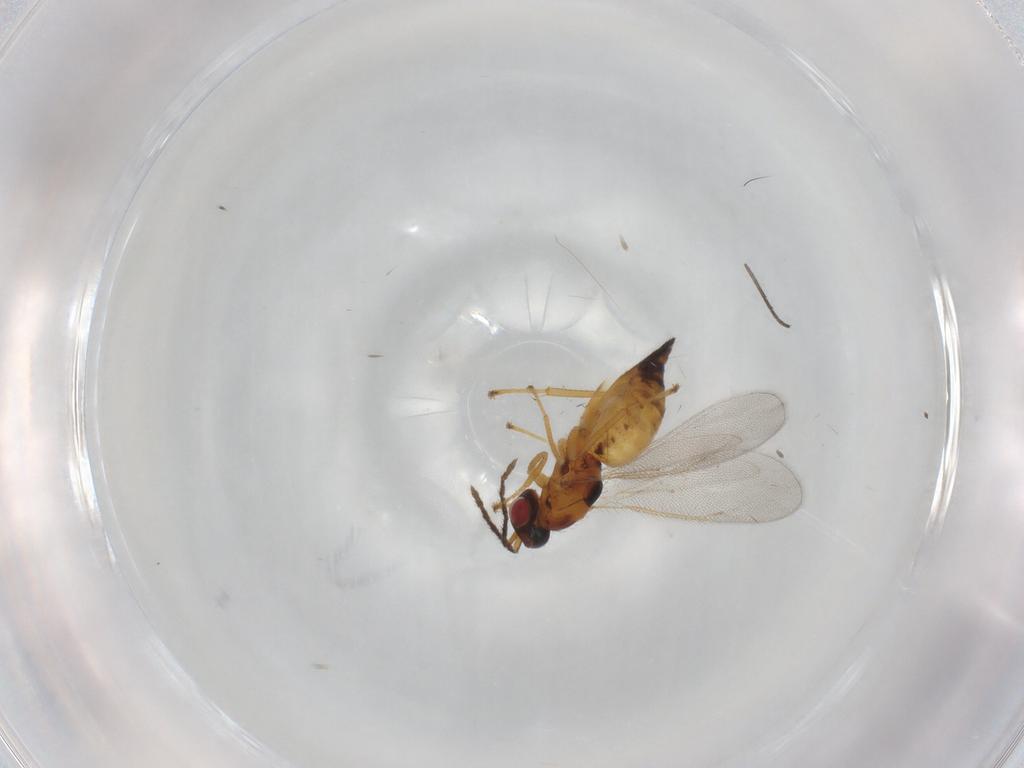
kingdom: Animalia
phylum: Arthropoda
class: Insecta
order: Hymenoptera
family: Eulophidae
